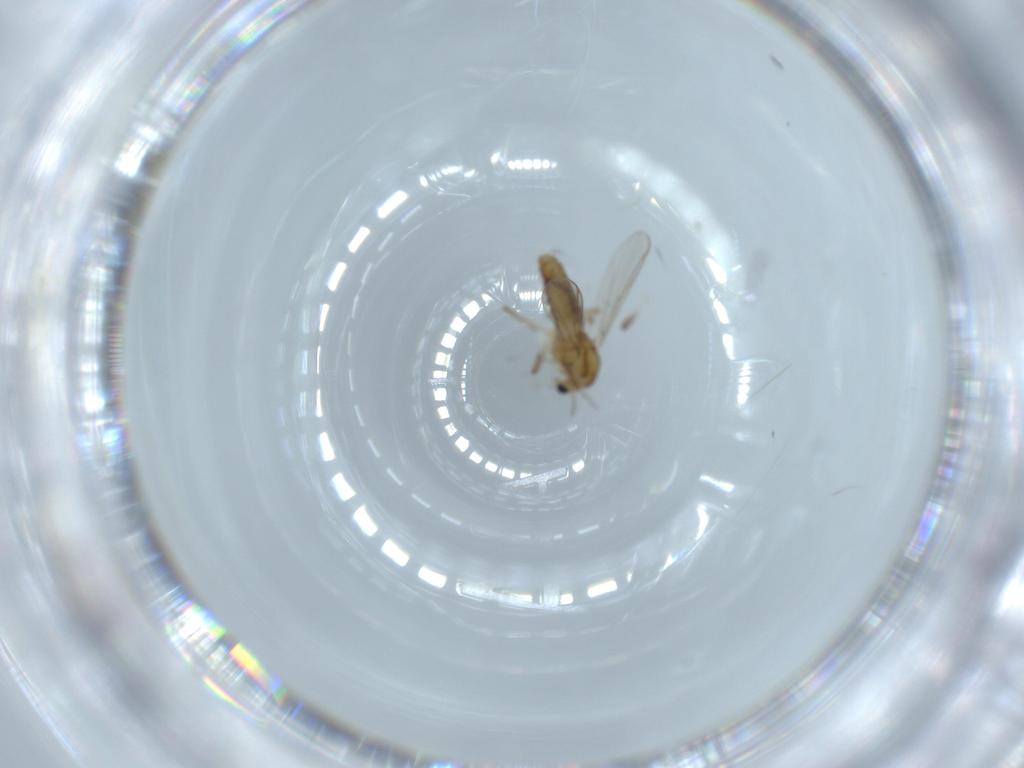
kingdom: Animalia
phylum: Arthropoda
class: Insecta
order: Diptera
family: Chironomidae
